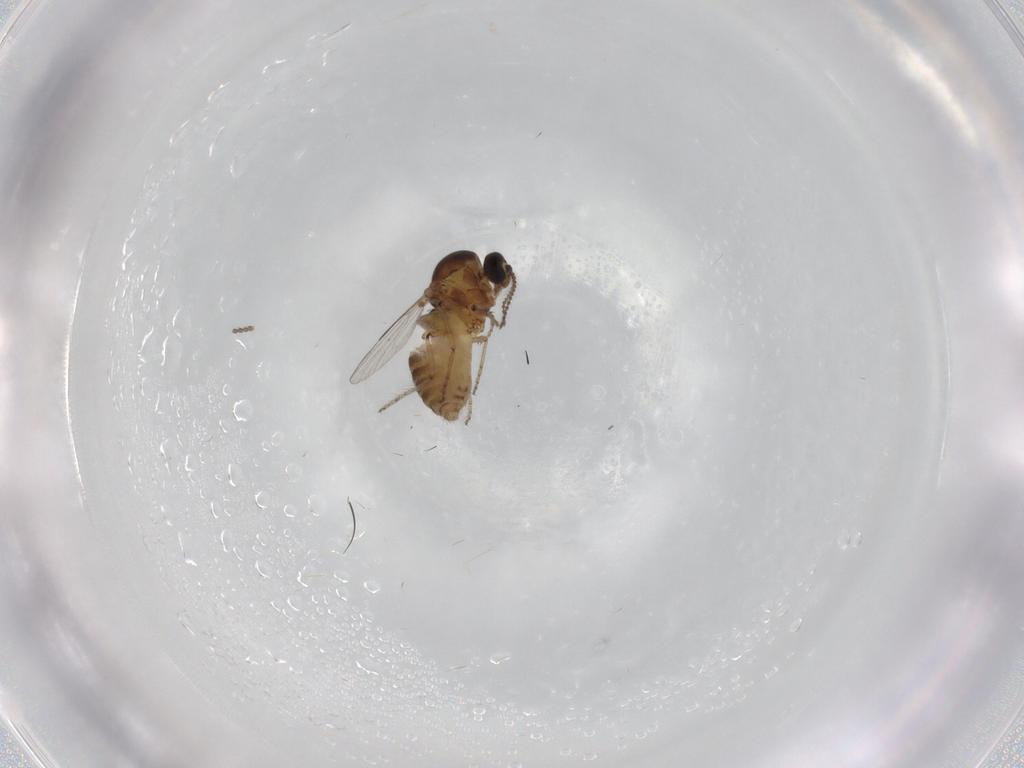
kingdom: Animalia
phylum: Arthropoda
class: Insecta
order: Diptera
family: Ceratopogonidae
